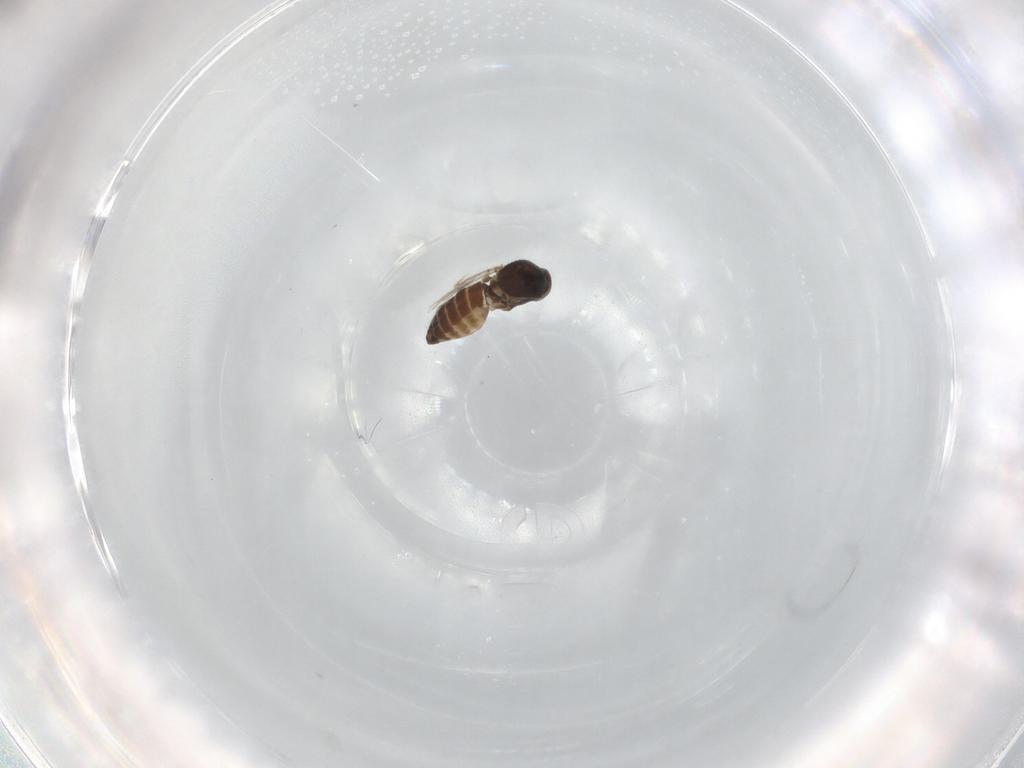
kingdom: Animalia
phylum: Arthropoda
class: Insecta
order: Diptera
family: Ceratopogonidae
